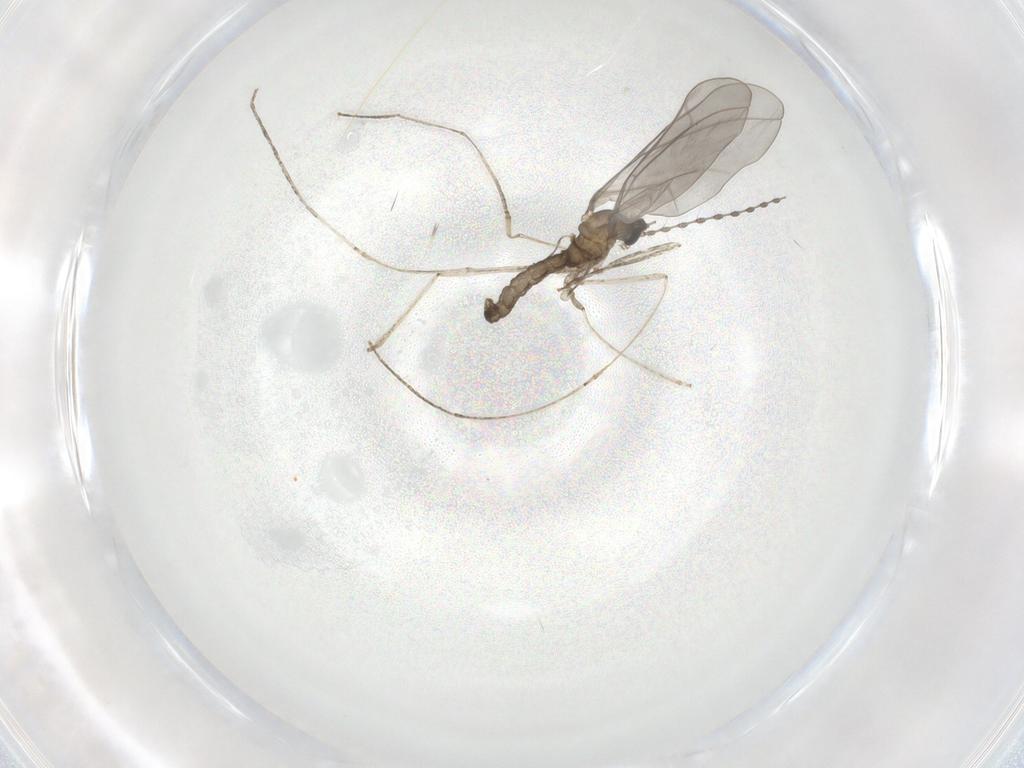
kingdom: Animalia
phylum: Arthropoda
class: Insecta
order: Diptera
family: Cecidomyiidae
